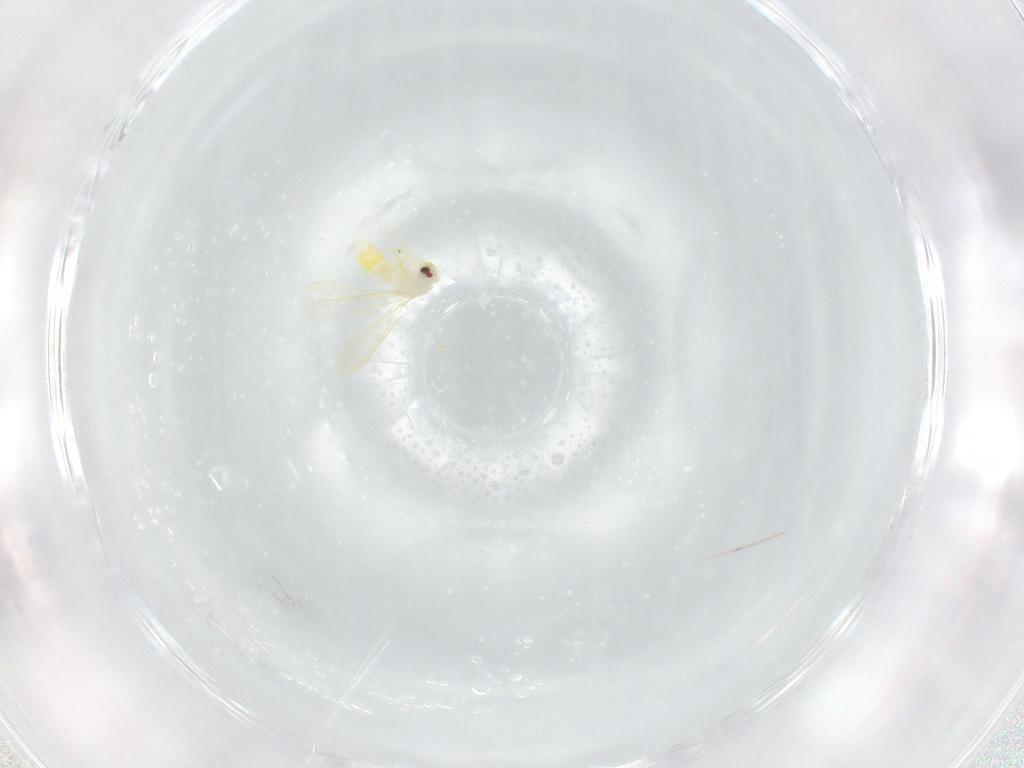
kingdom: Animalia
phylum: Arthropoda
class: Insecta
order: Hemiptera
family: Aleyrodidae
